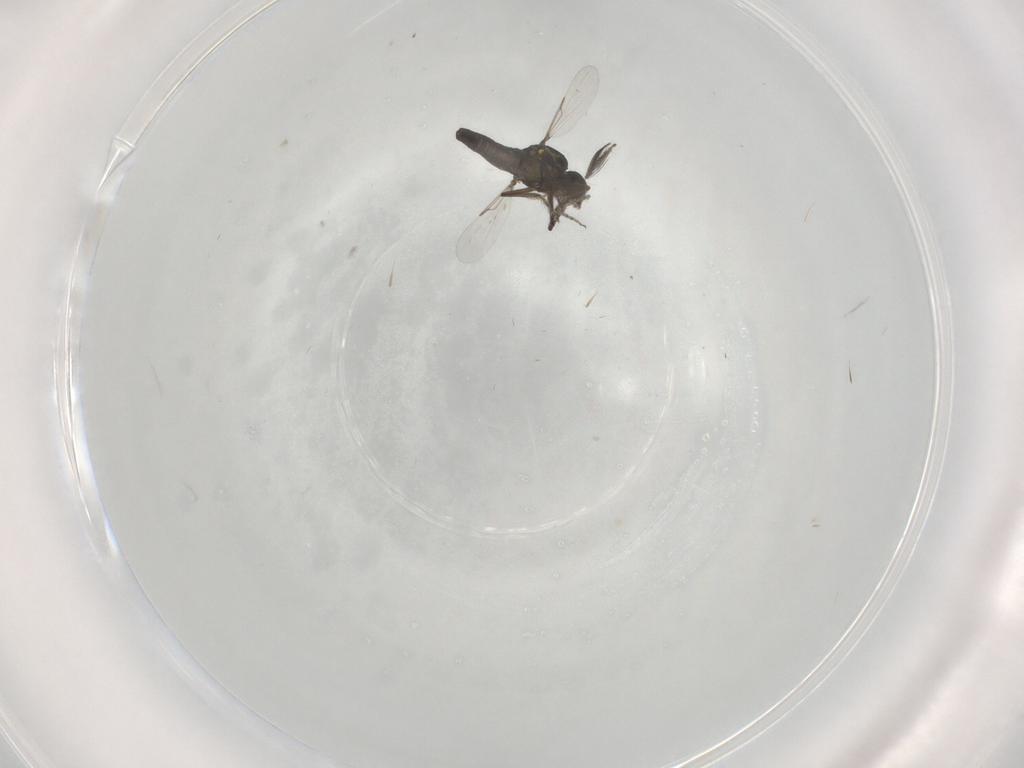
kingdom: Animalia
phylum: Arthropoda
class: Insecta
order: Diptera
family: Ceratopogonidae
